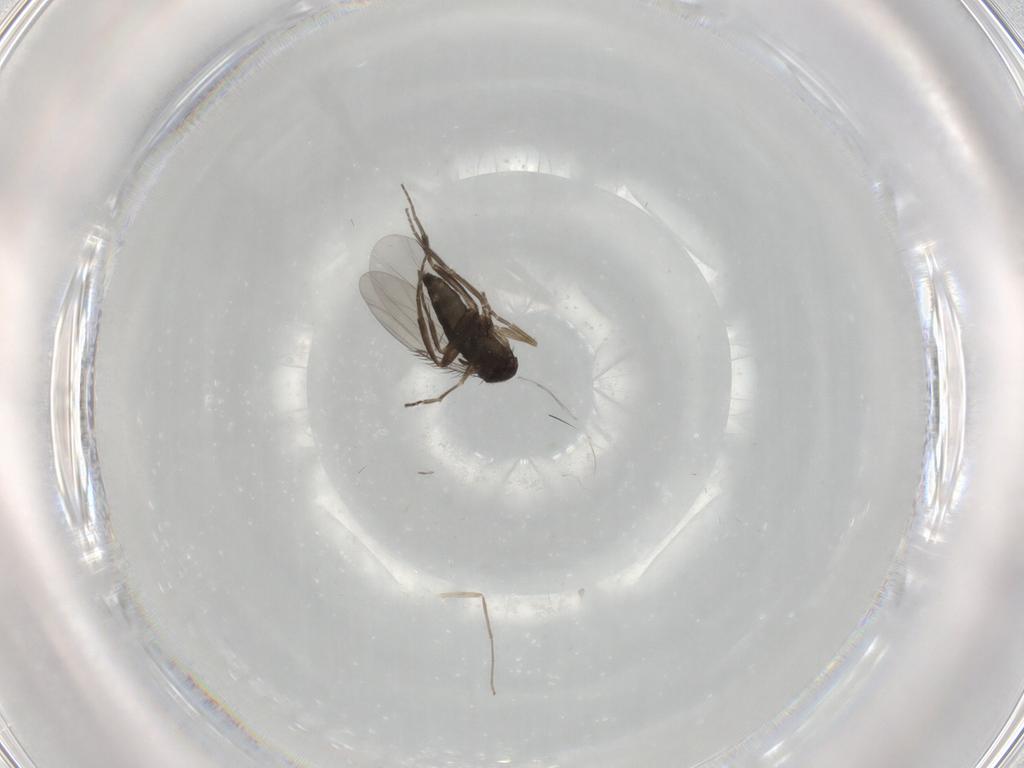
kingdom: Animalia
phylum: Arthropoda
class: Insecta
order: Diptera
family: Phoridae
